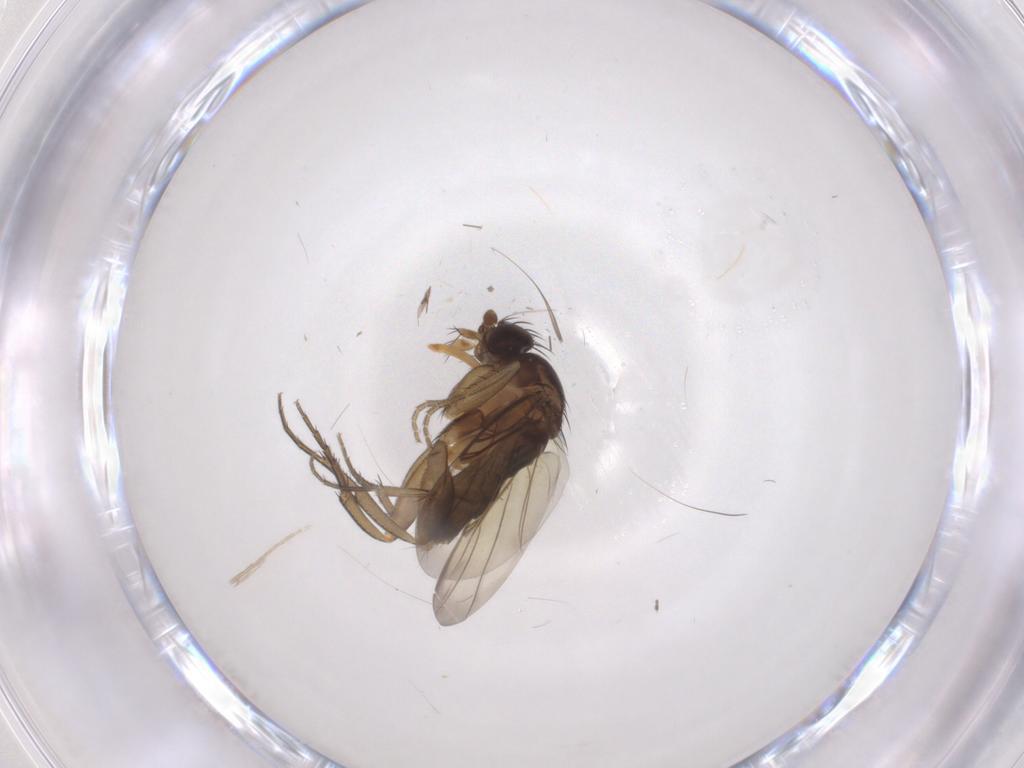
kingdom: Animalia
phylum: Arthropoda
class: Insecta
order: Diptera
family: Phoridae
